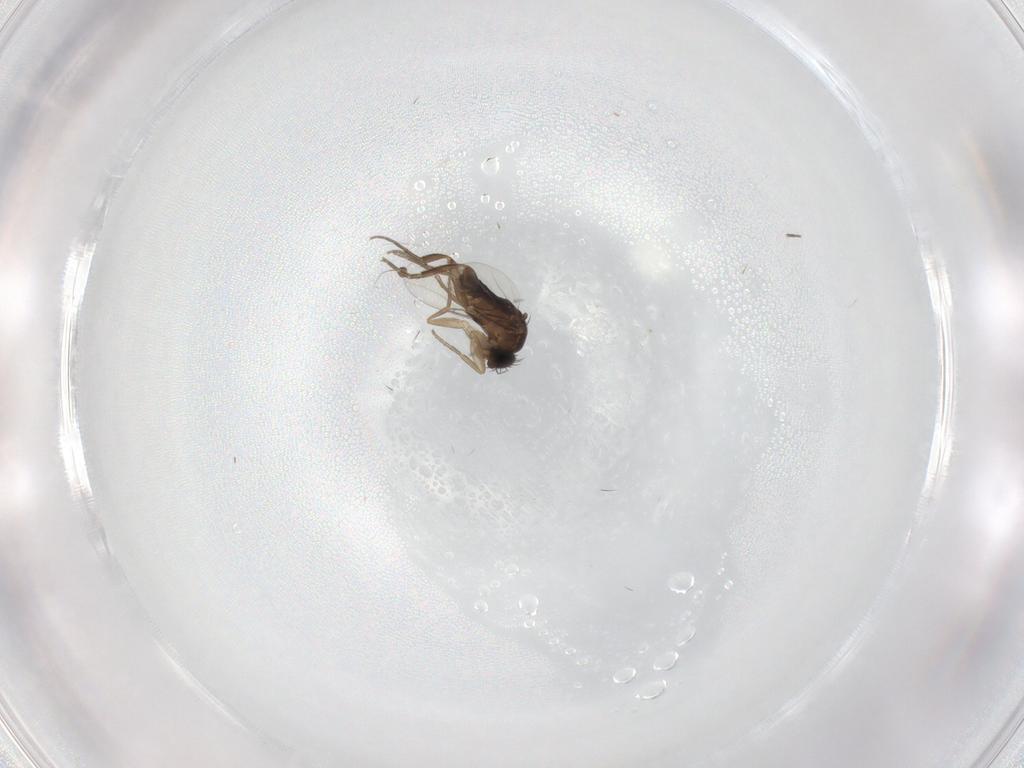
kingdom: Animalia
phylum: Arthropoda
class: Insecta
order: Diptera
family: Phoridae
